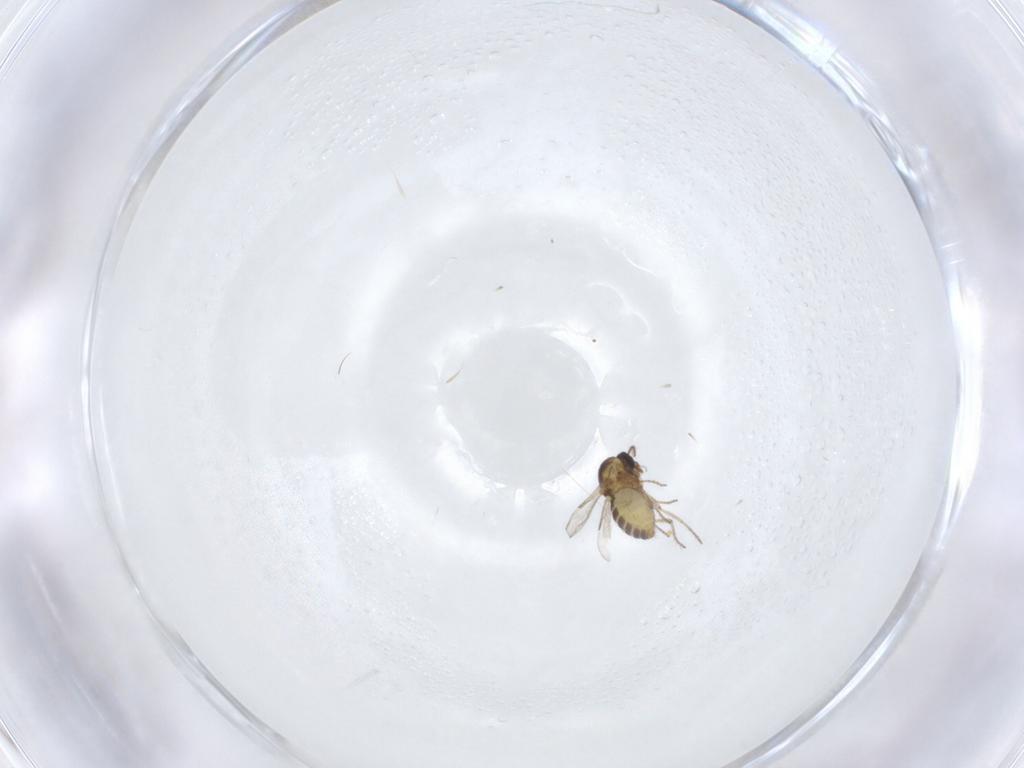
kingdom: Animalia
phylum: Arthropoda
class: Insecta
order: Diptera
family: Ceratopogonidae
